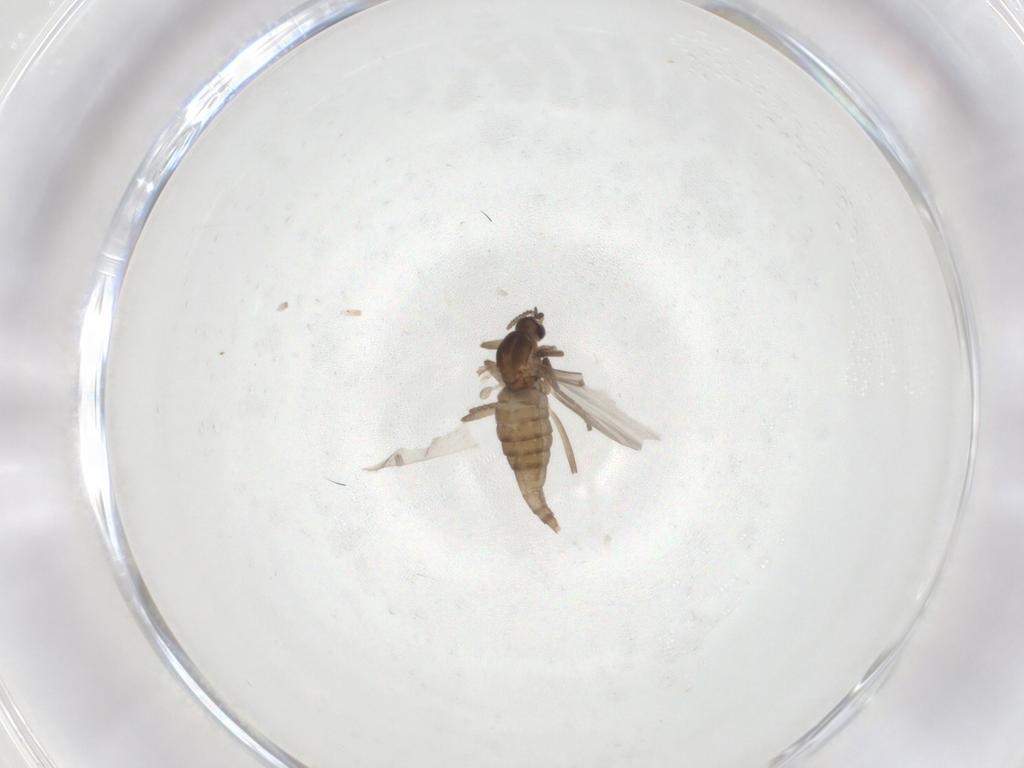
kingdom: Animalia
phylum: Arthropoda
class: Insecta
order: Diptera
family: Cecidomyiidae
